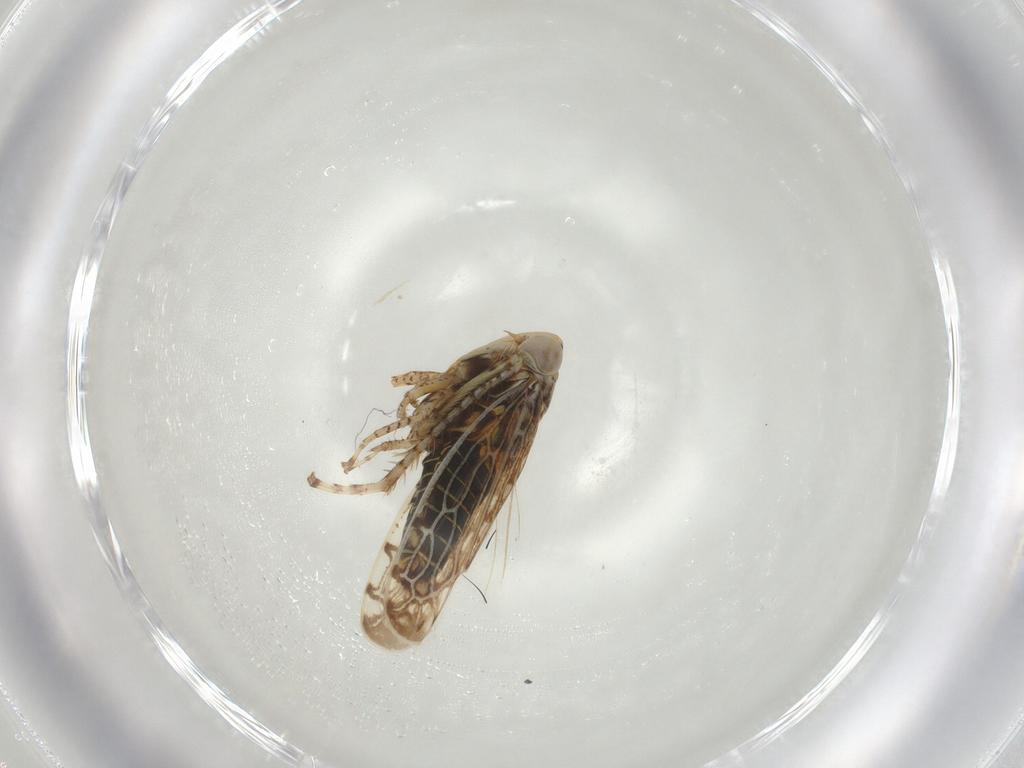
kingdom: Animalia
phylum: Arthropoda
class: Insecta
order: Hemiptera
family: Cicadellidae
